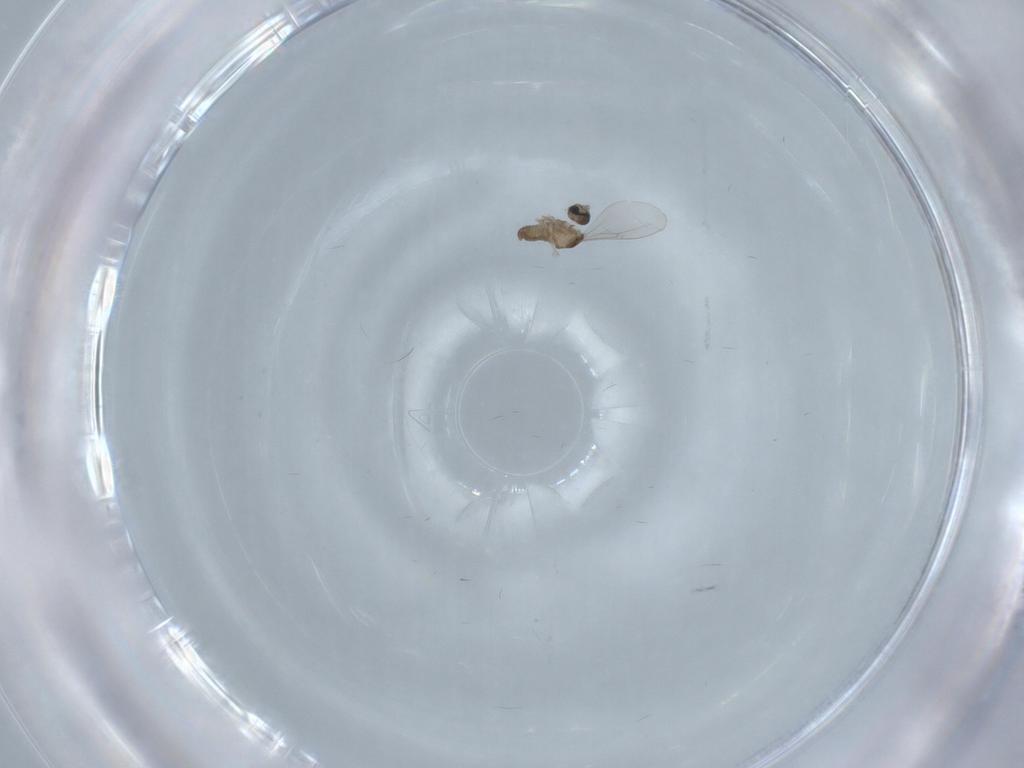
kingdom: Animalia
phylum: Arthropoda
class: Insecta
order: Diptera
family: Cecidomyiidae
